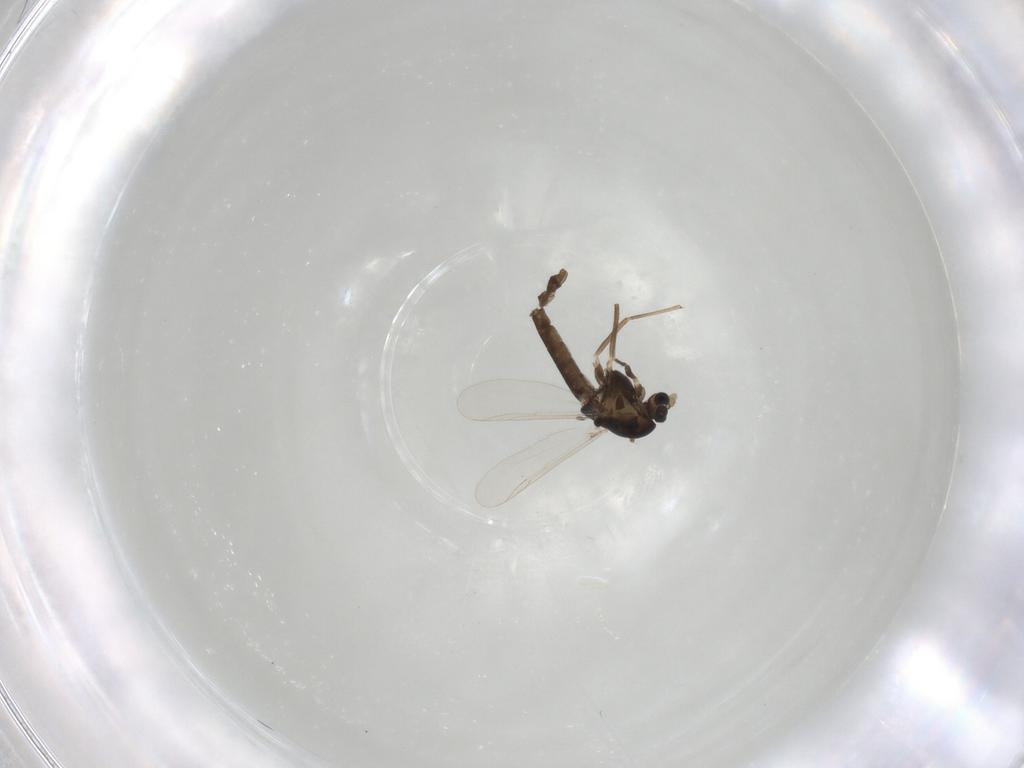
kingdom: Animalia
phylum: Arthropoda
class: Insecta
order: Diptera
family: Chironomidae
